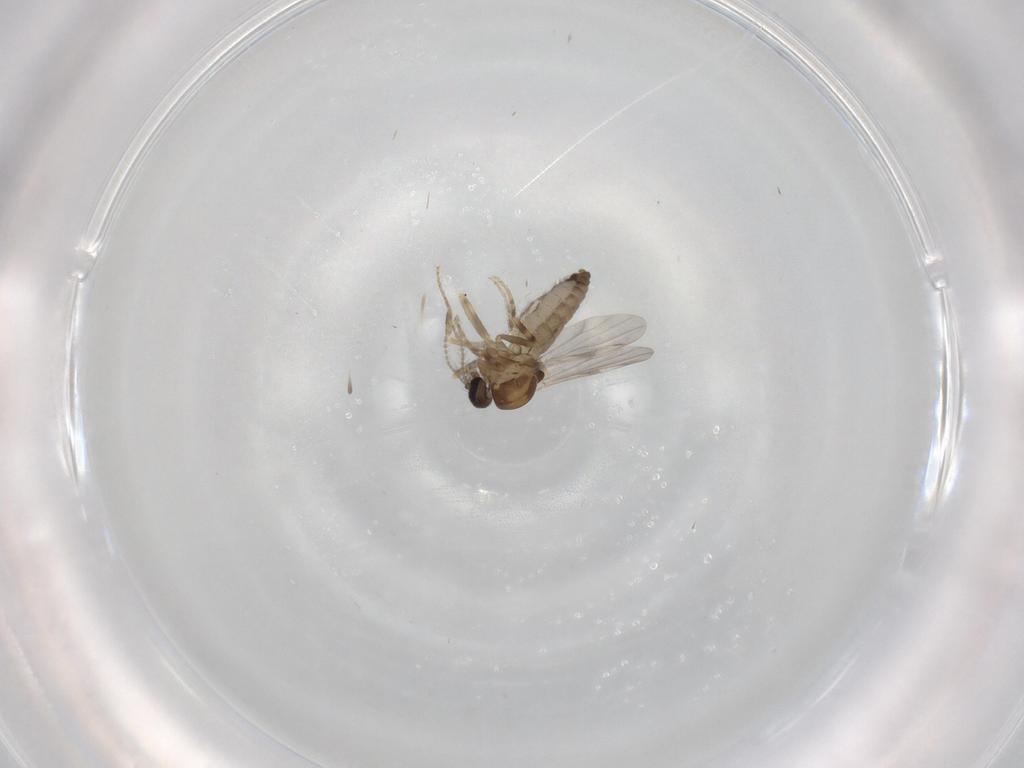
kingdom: Animalia
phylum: Arthropoda
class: Insecta
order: Diptera
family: Ceratopogonidae
